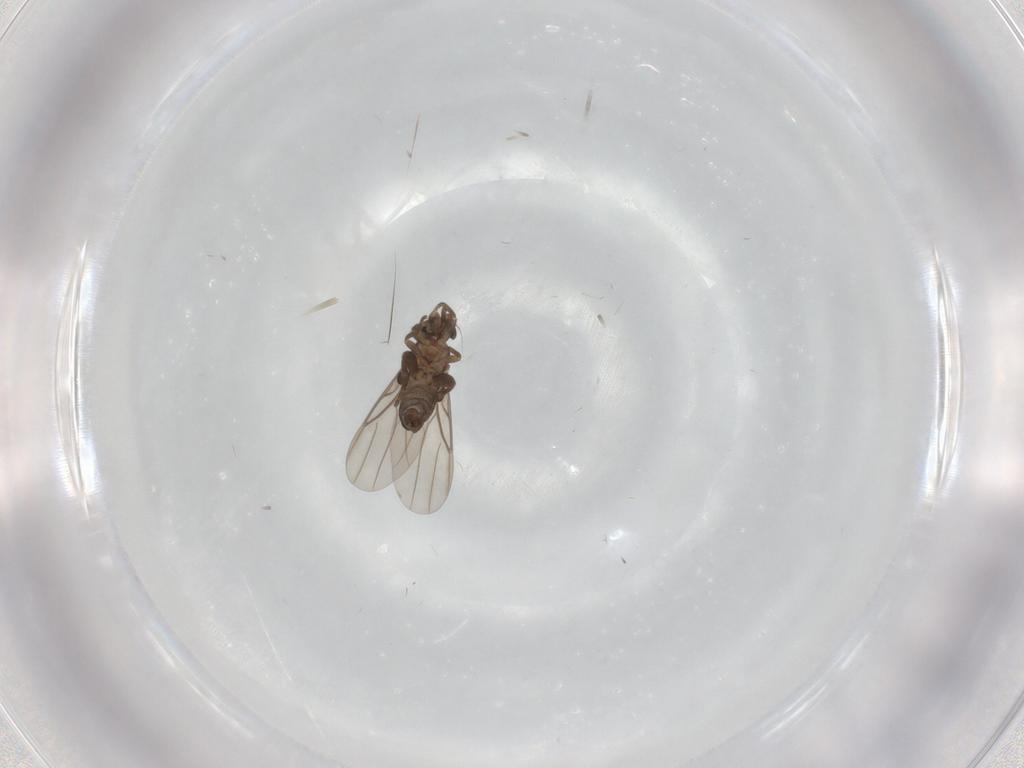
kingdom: Animalia
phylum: Arthropoda
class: Insecta
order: Diptera
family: Phoridae
